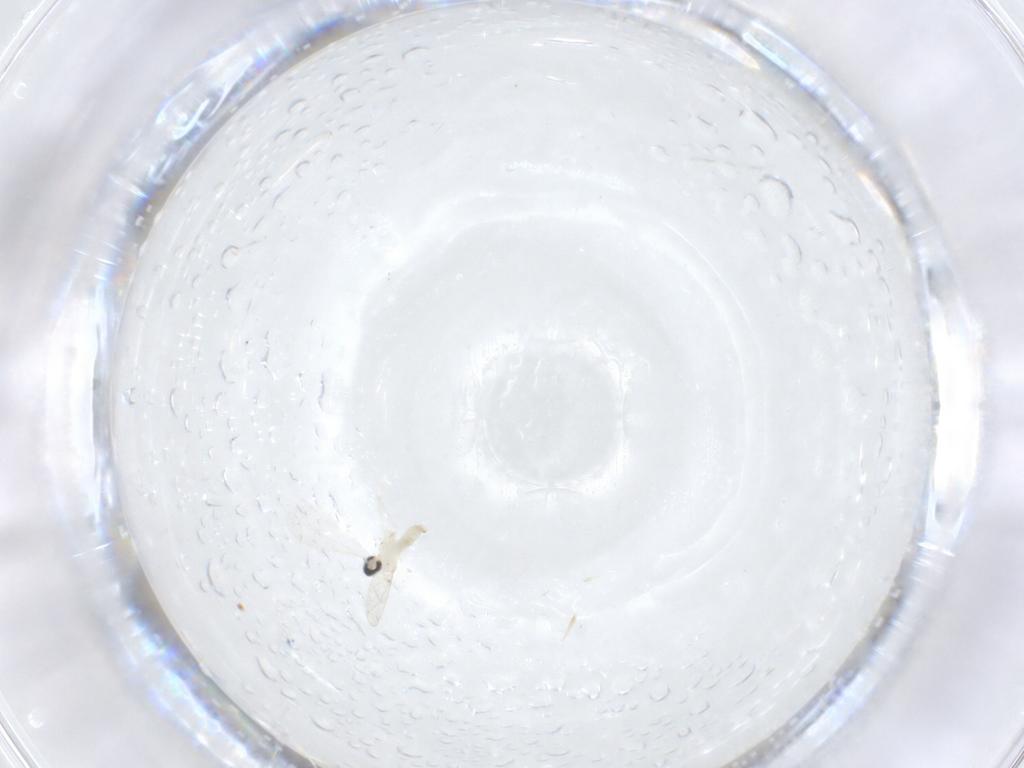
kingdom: Animalia
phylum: Arthropoda
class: Insecta
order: Diptera
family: Cecidomyiidae
